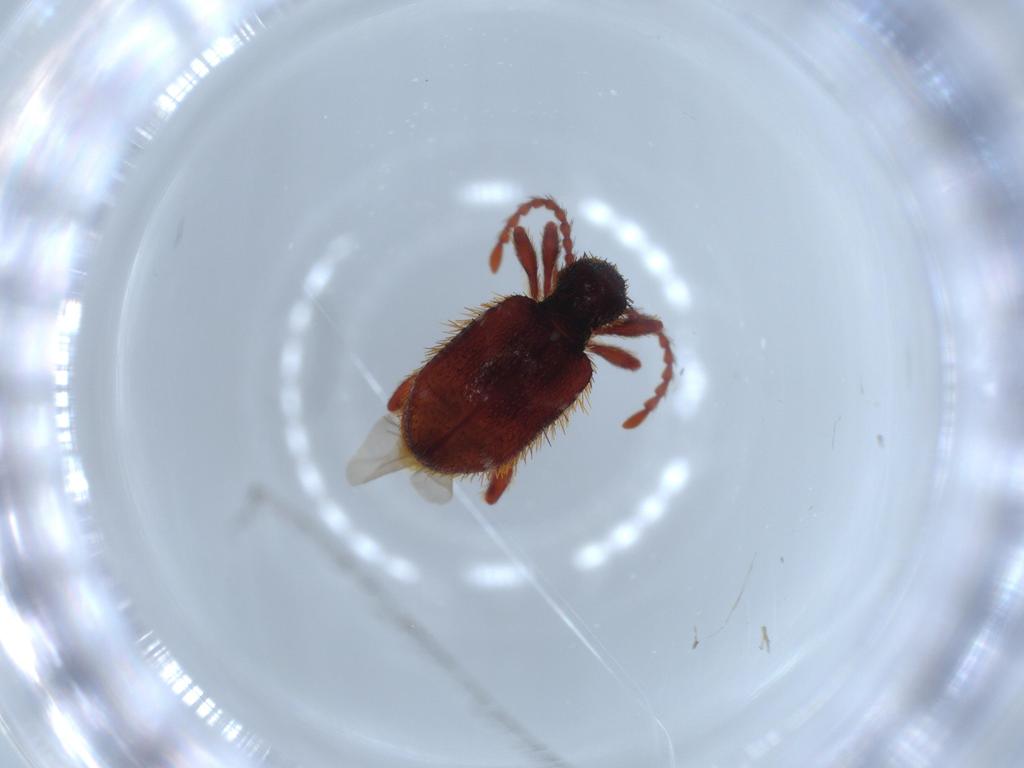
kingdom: Animalia
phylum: Arthropoda
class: Insecta
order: Coleoptera
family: Ptinidae
